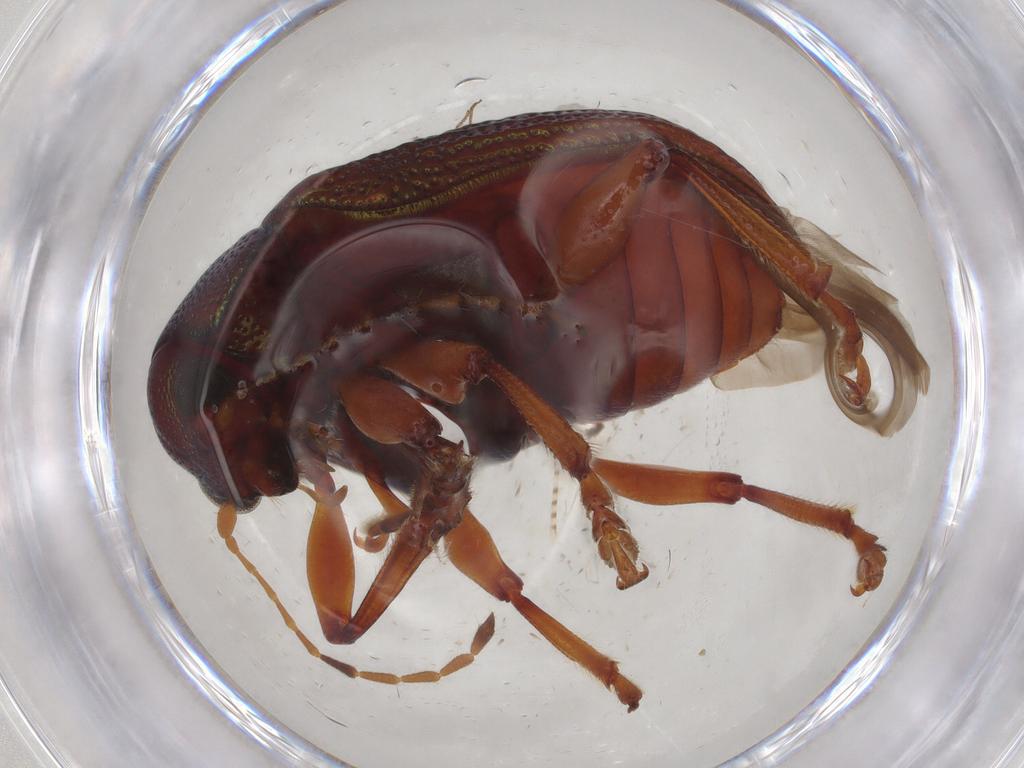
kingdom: Animalia
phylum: Arthropoda
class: Insecta
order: Coleoptera
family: Chrysomelidae
